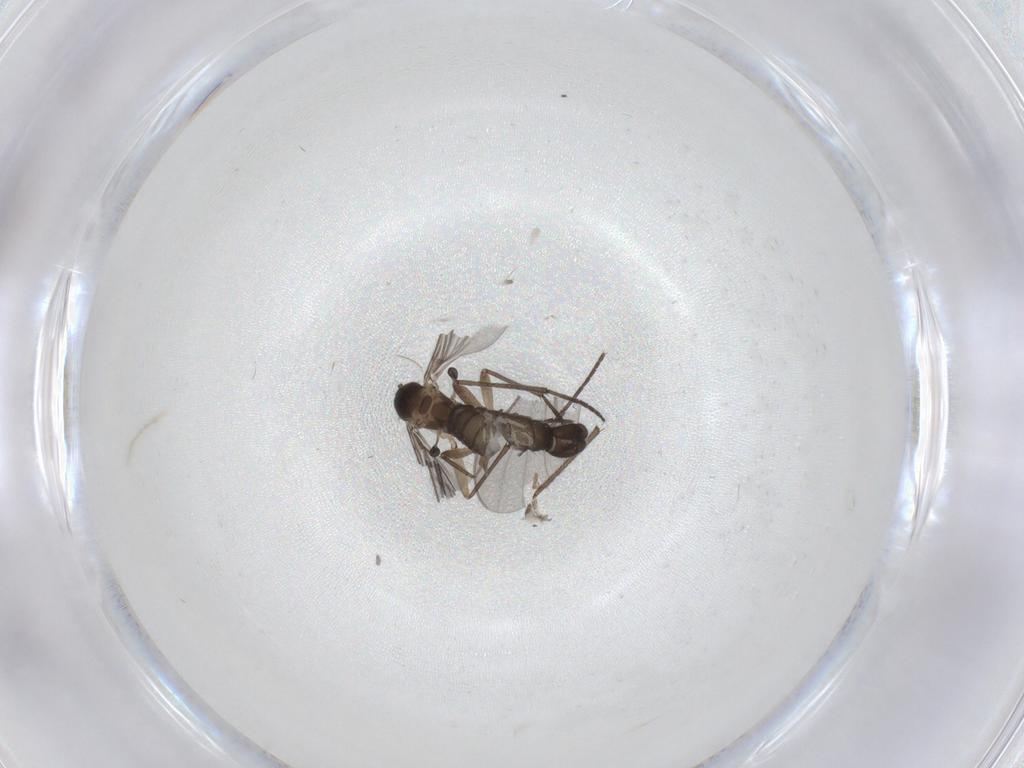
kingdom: Animalia
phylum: Arthropoda
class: Insecta
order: Diptera
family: Sciaridae
